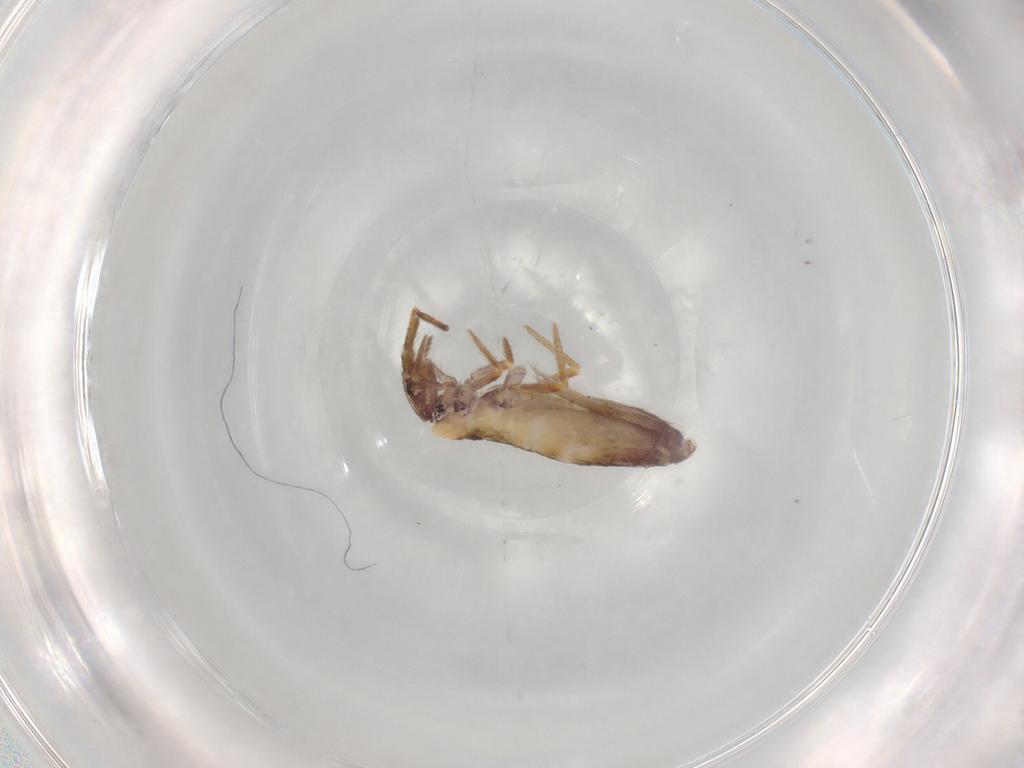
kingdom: Animalia
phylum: Arthropoda
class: Collembola
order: Entomobryomorpha
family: Entomobryidae
